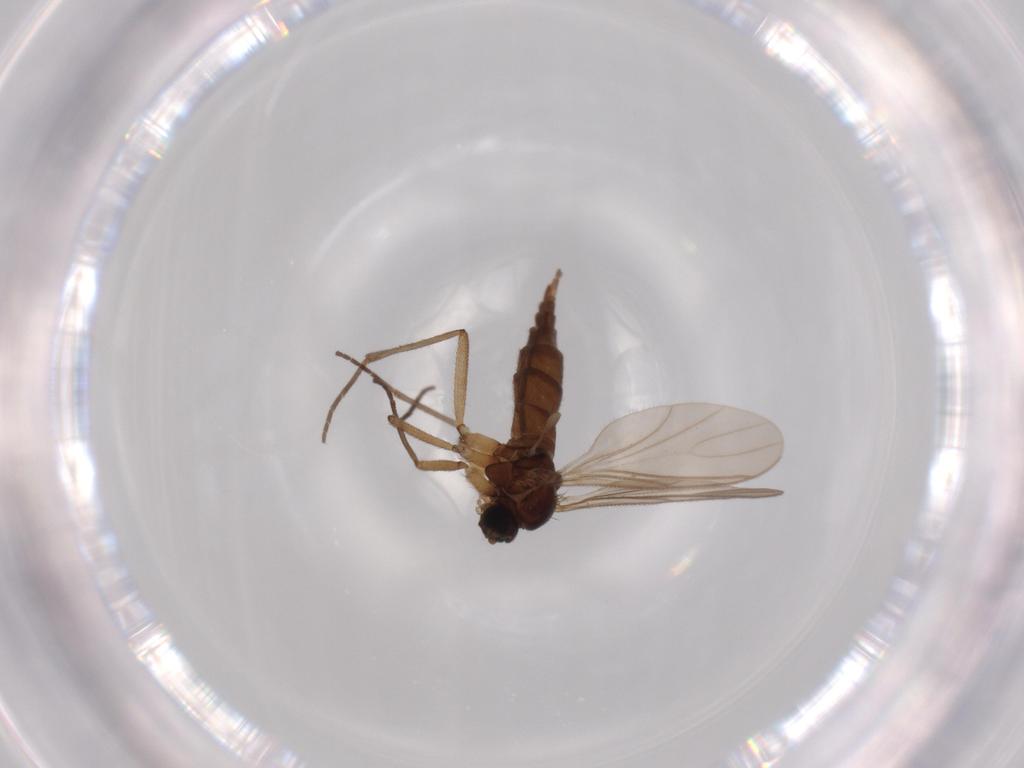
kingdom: Animalia
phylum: Arthropoda
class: Insecta
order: Diptera
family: Sciaridae
